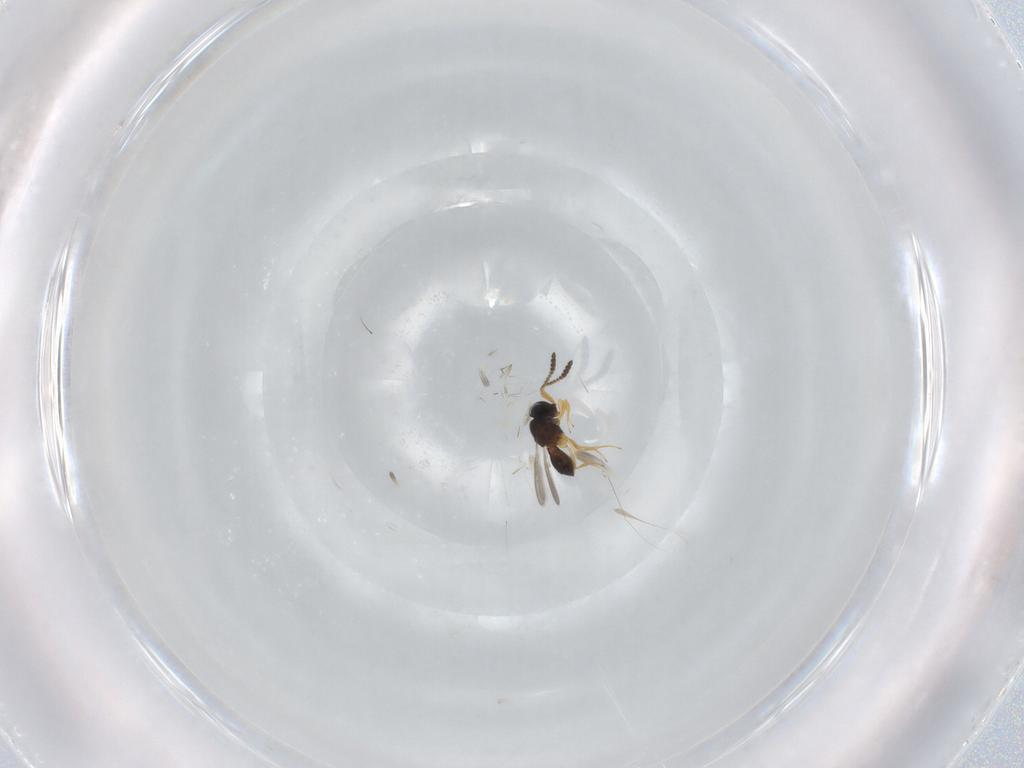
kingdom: Animalia
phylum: Arthropoda
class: Insecta
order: Hymenoptera
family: Scelionidae
